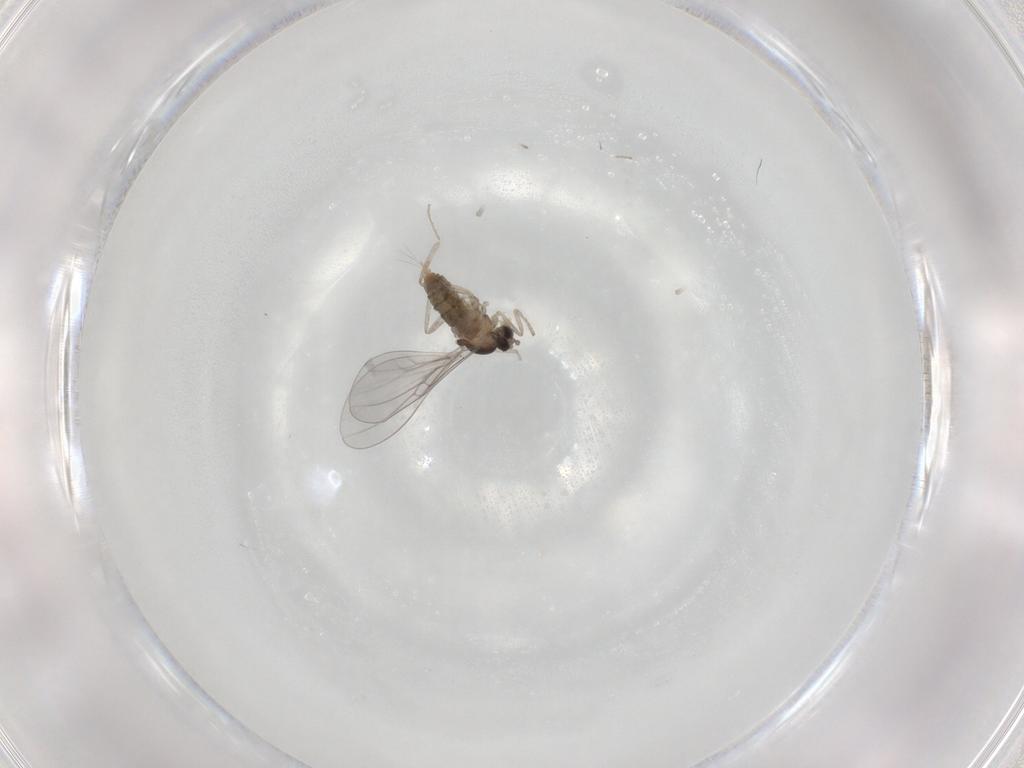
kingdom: Animalia
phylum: Arthropoda
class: Insecta
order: Diptera
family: Cecidomyiidae
